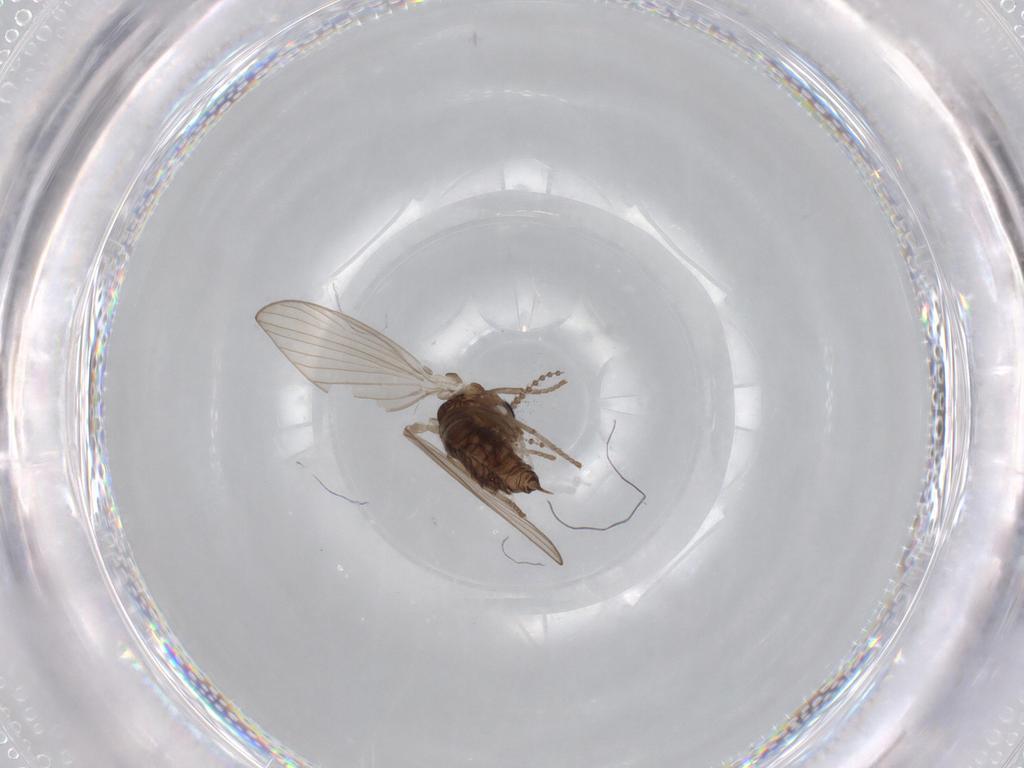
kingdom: Animalia
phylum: Arthropoda
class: Insecta
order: Diptera
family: Psychodidae
